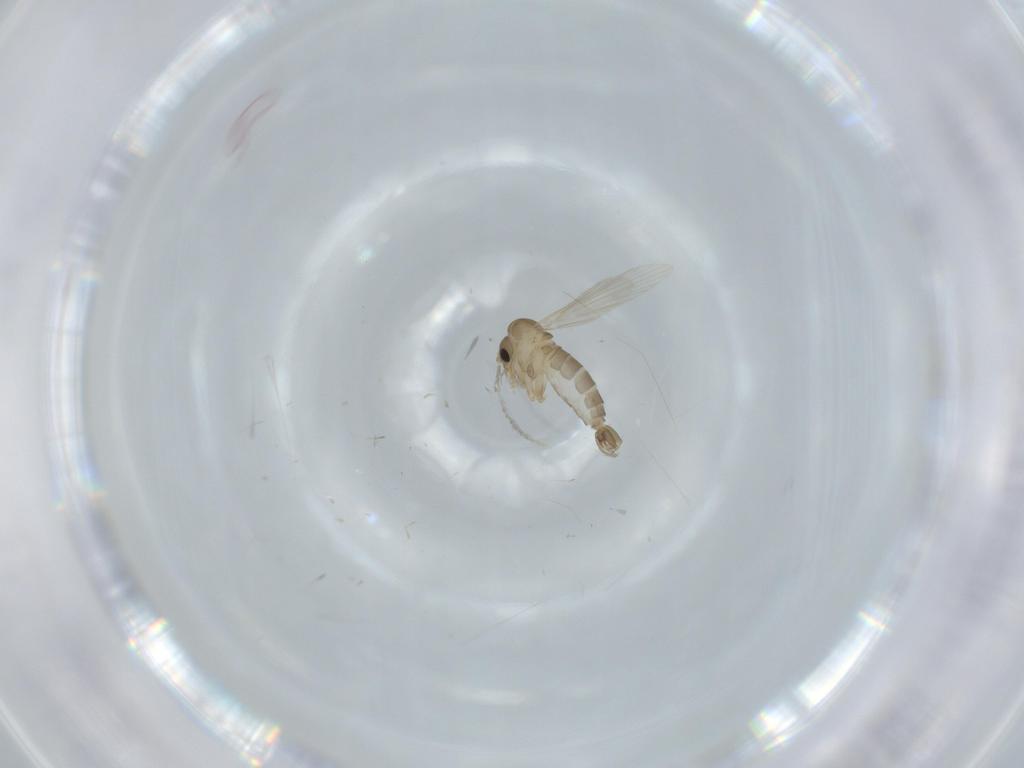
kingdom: Animalia
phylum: Arthropoda
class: Insecta
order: Diptera
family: Psychodidae
